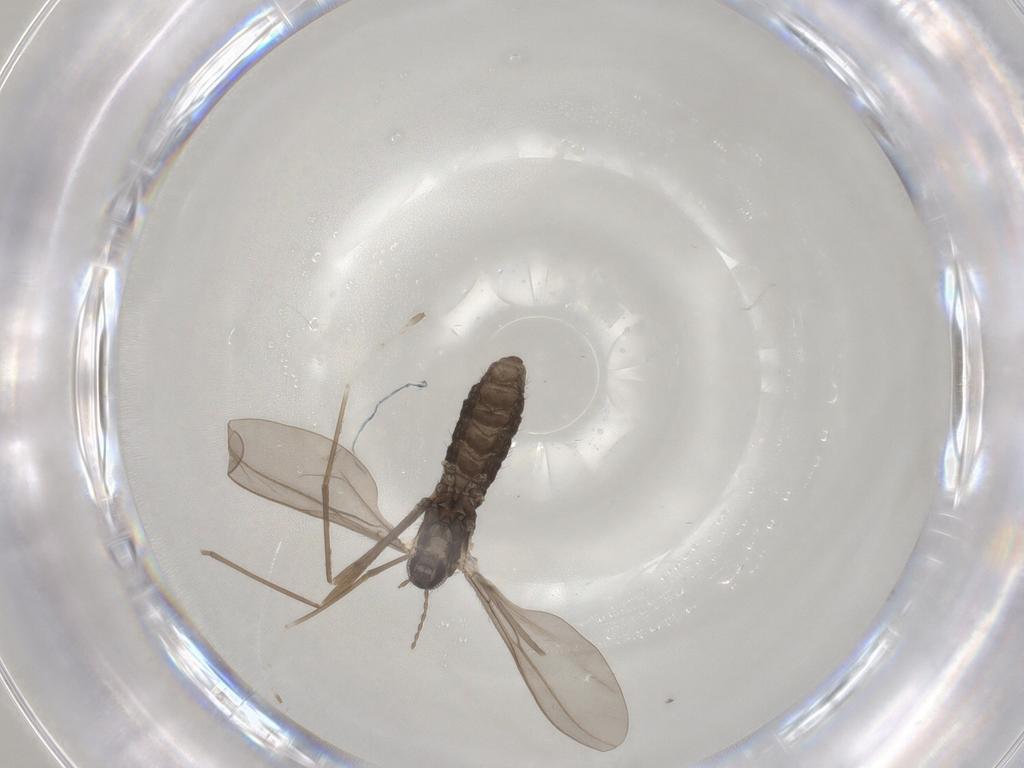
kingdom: Animalia
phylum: Arthropoda
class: Insecta
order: Diptera
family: Cecidomyiidae
